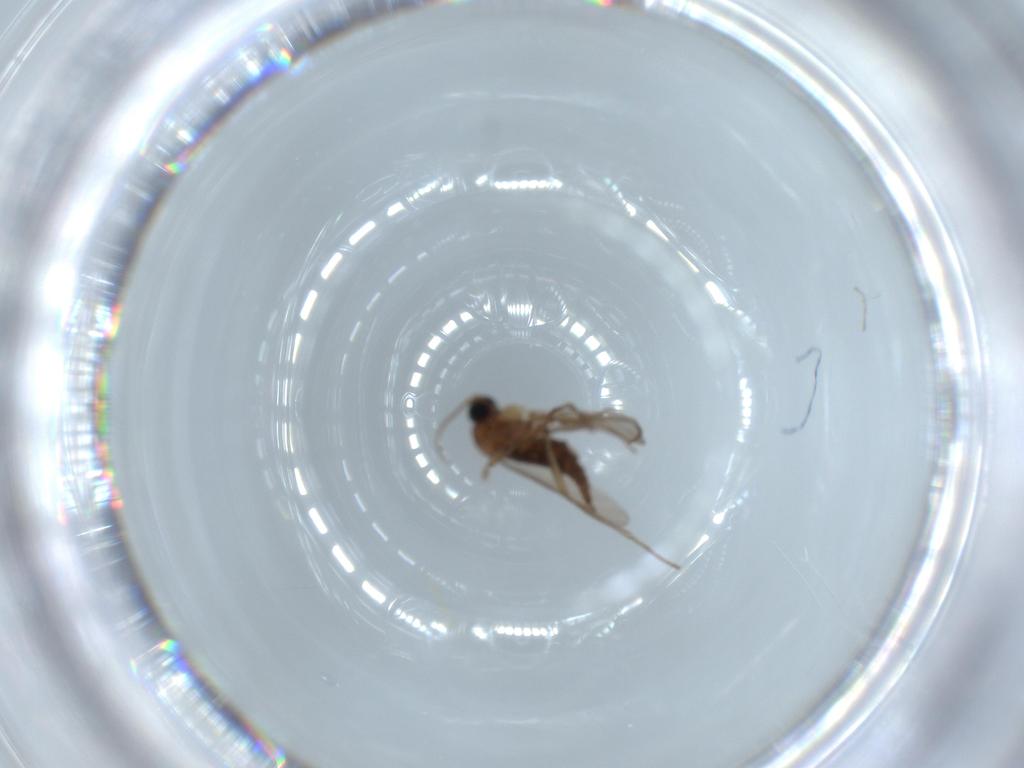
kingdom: Animalia
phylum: Arthropoda
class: Insecta
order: Diptera
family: Sciaridae
